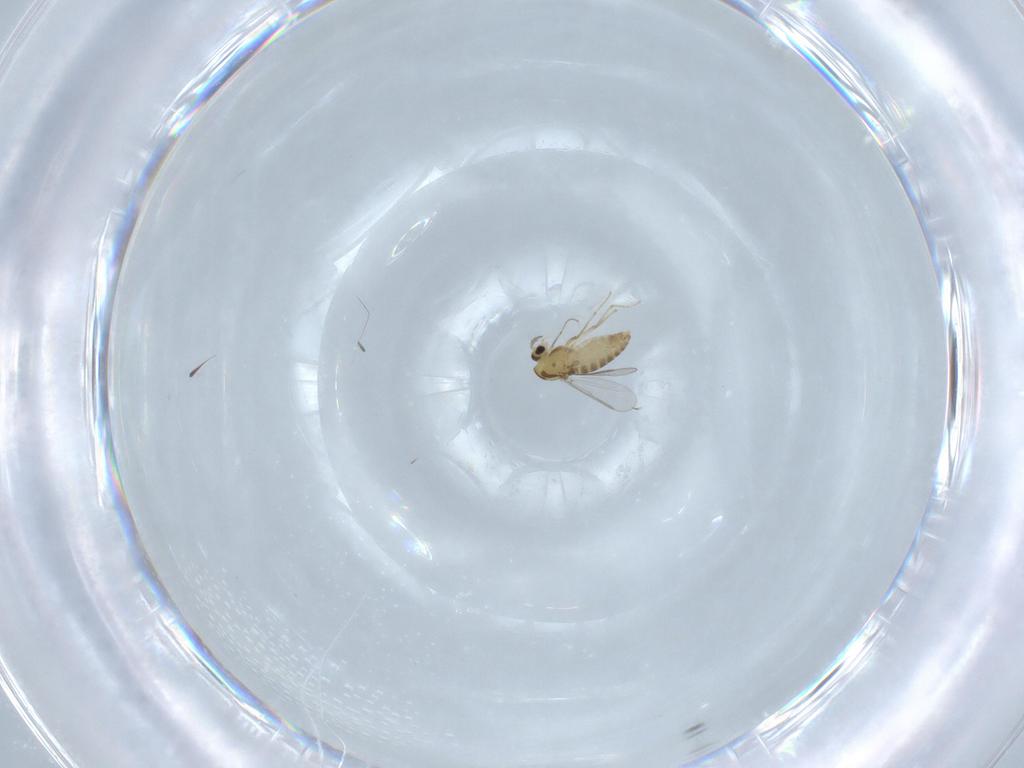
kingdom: Animalia
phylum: Arthropoda
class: Insecta
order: Diptera
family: Chironomidae
